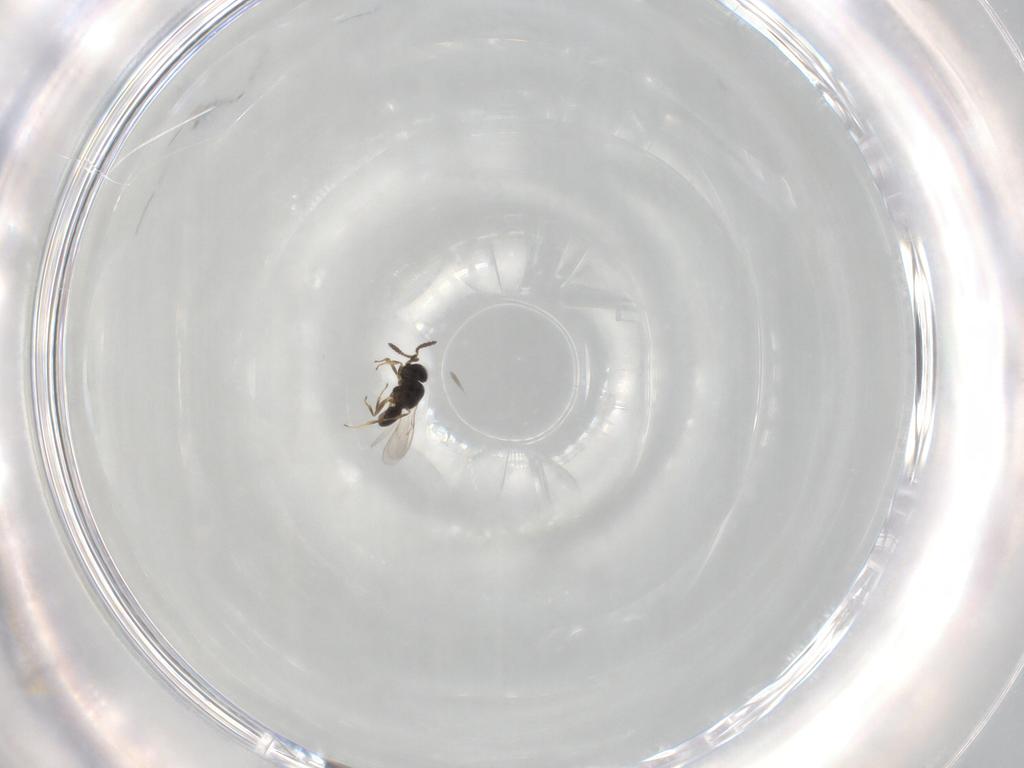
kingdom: Animalia
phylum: Arthropoda
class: Insecta
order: Hymenoptera
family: Scelionidae
